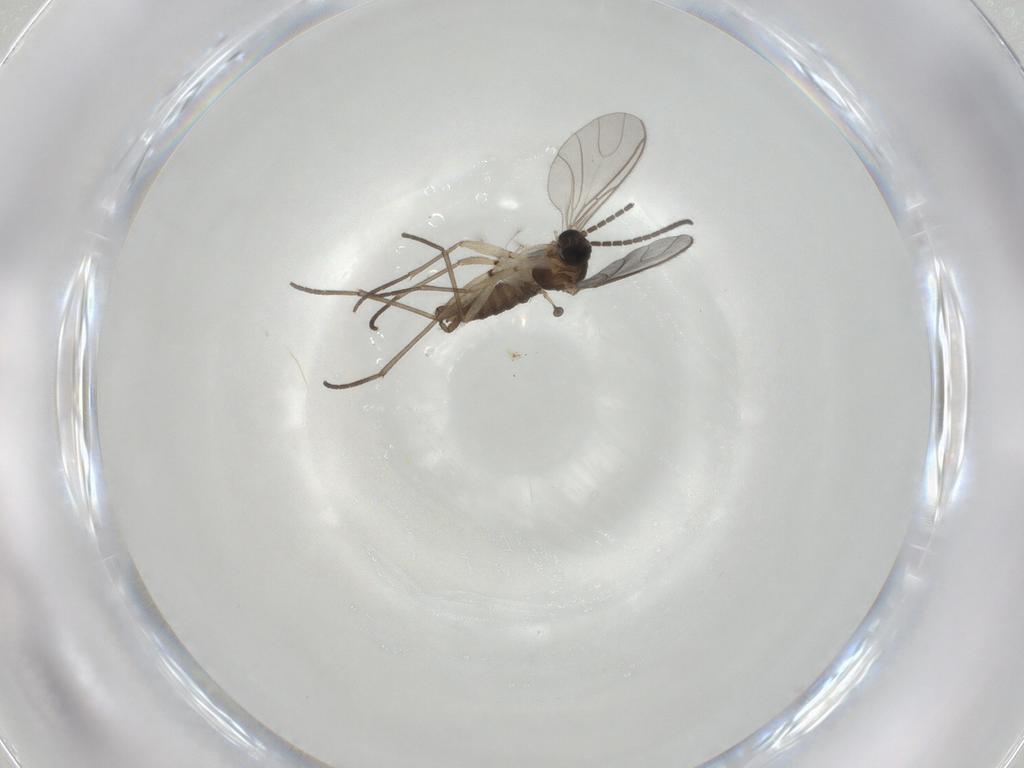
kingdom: Animalia
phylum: Arthropoda
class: Insecta
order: Diptera
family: Sciaridae
